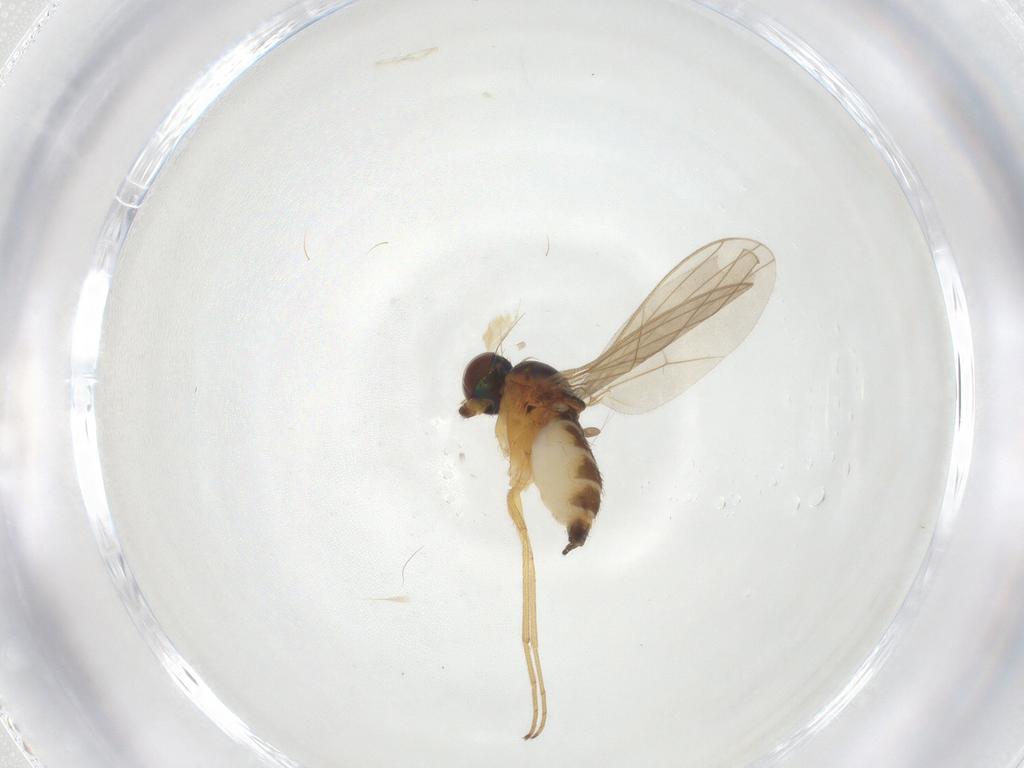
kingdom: Animalia
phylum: Arthropoda
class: Insecta
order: Diptera
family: Dolichopodidae
